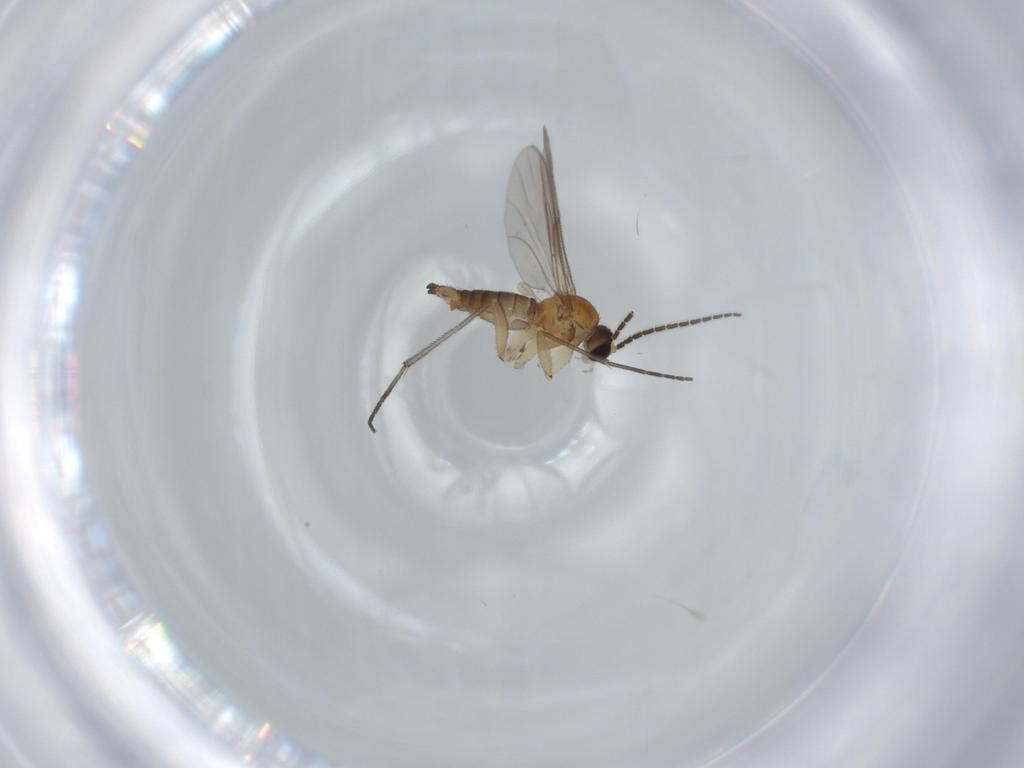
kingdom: Animalia
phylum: Arthropoda
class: Insecta
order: Diptera
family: Sciaridae
